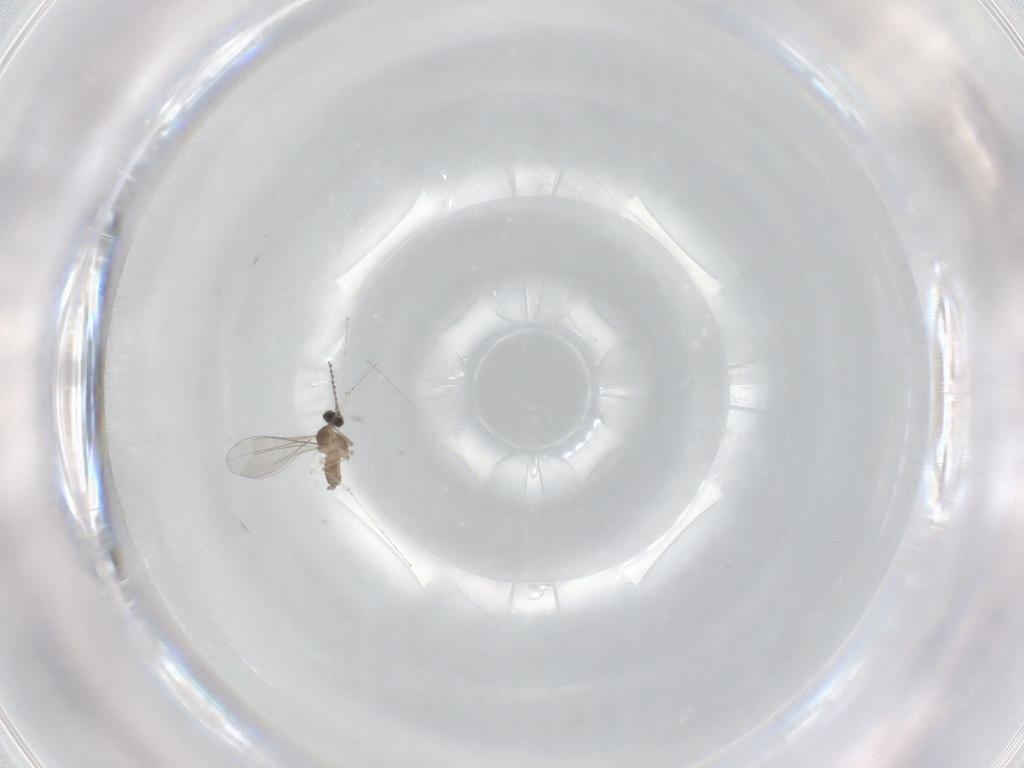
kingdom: Animalia
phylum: Arthropoda
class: Insecta
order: Diptera
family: Cecidomyiidae
